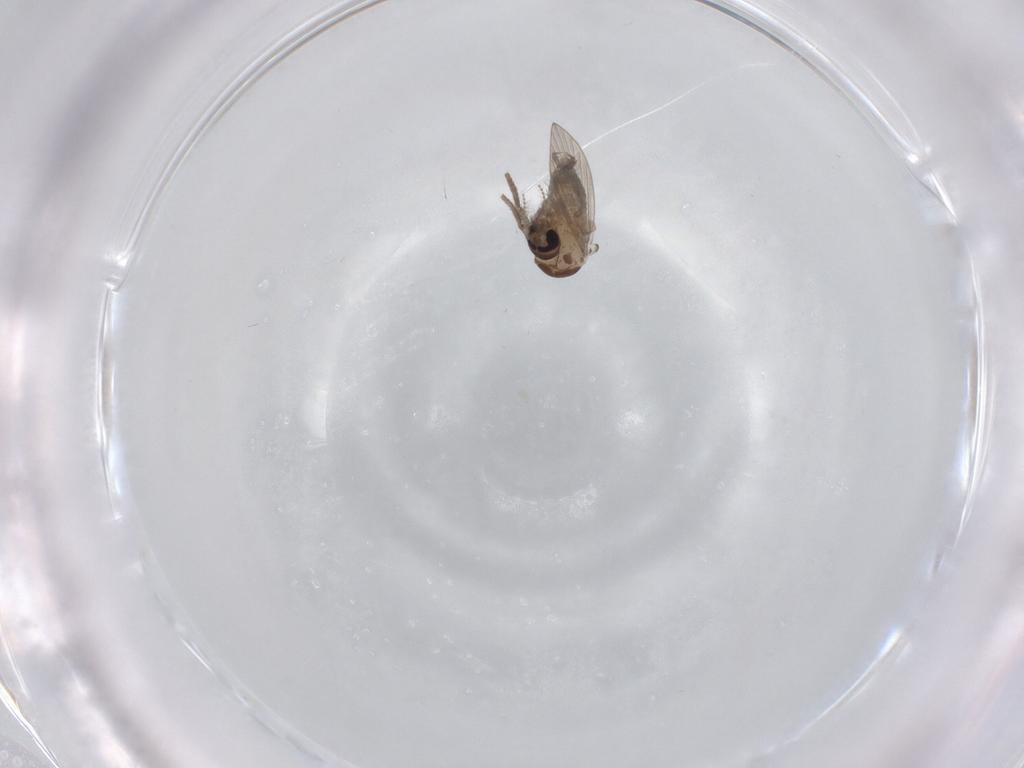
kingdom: Animalia
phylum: Arthropoda
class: Insecta
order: Diptera
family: Psychodidae
